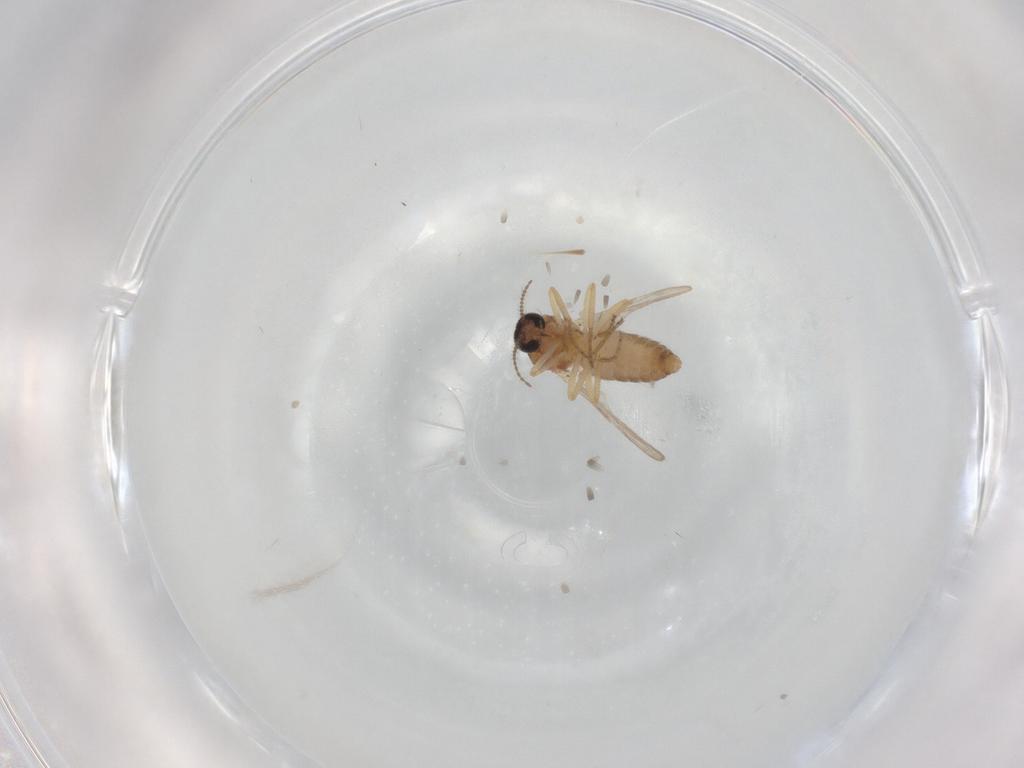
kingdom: Animalia
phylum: Arthropoda
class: Insecta
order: Diptera
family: Ceratopogonidae
